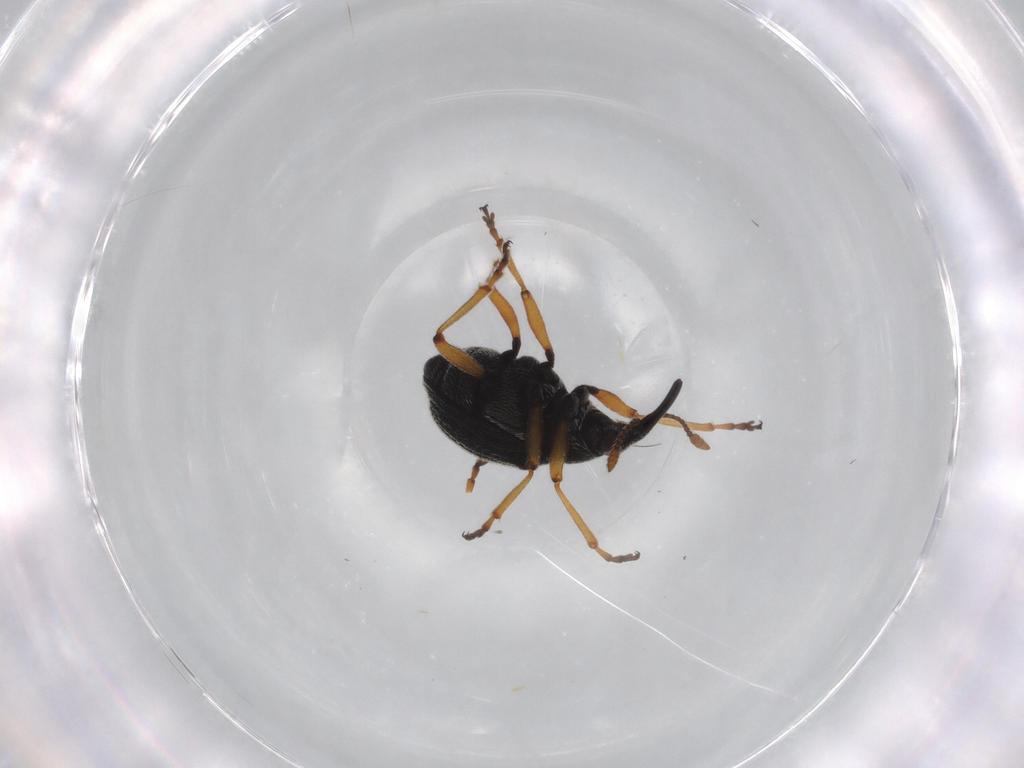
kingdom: Animalia
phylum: Arthropoda
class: Insecta
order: Coleoptera
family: Brentidae
